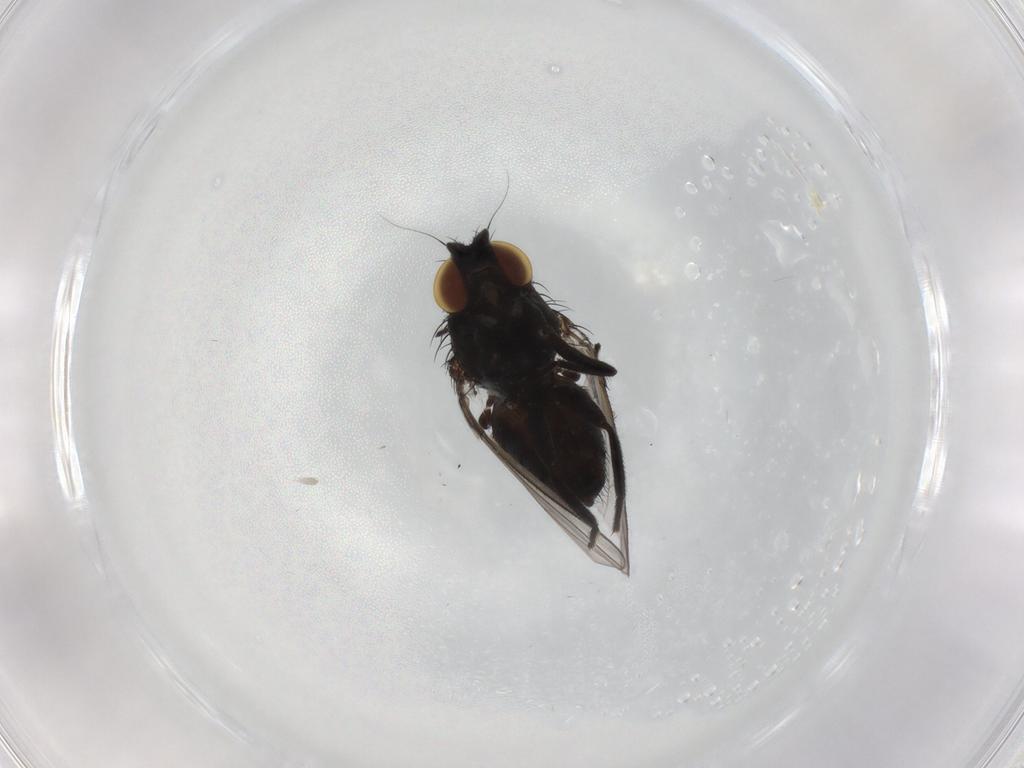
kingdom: Animalia
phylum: Arthropoda
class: Insecta
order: Diptera
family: Milichiidae
